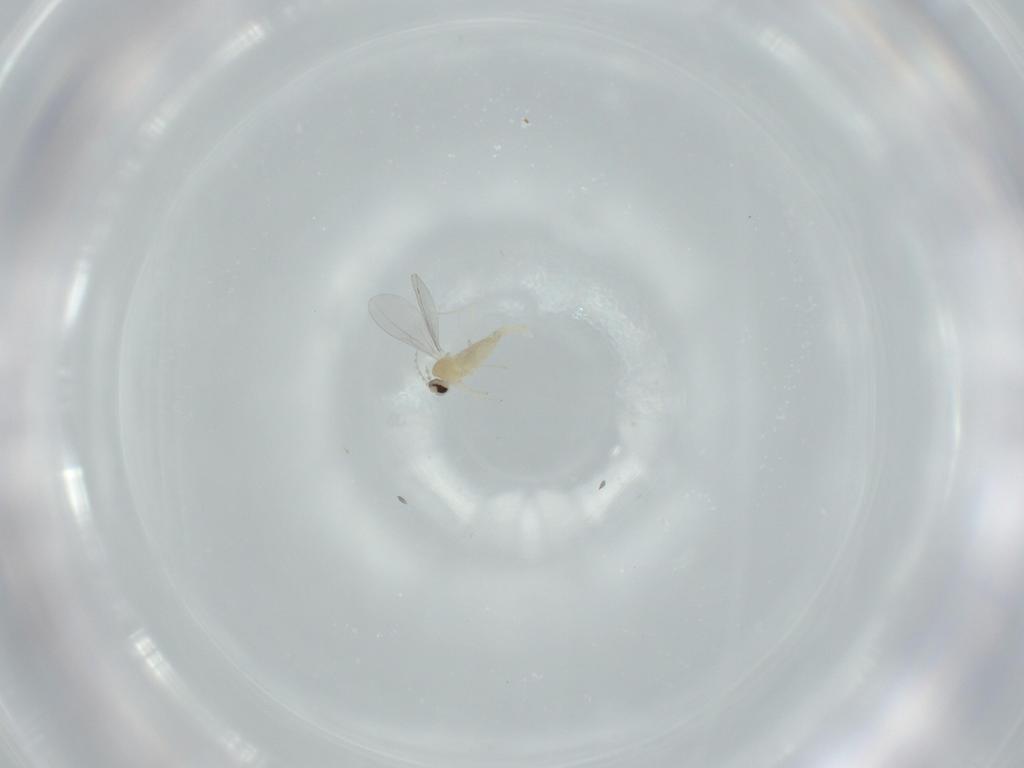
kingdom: Animalia
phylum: Arthropoda
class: Insecta
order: Diptera
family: Cecidomyiidae
